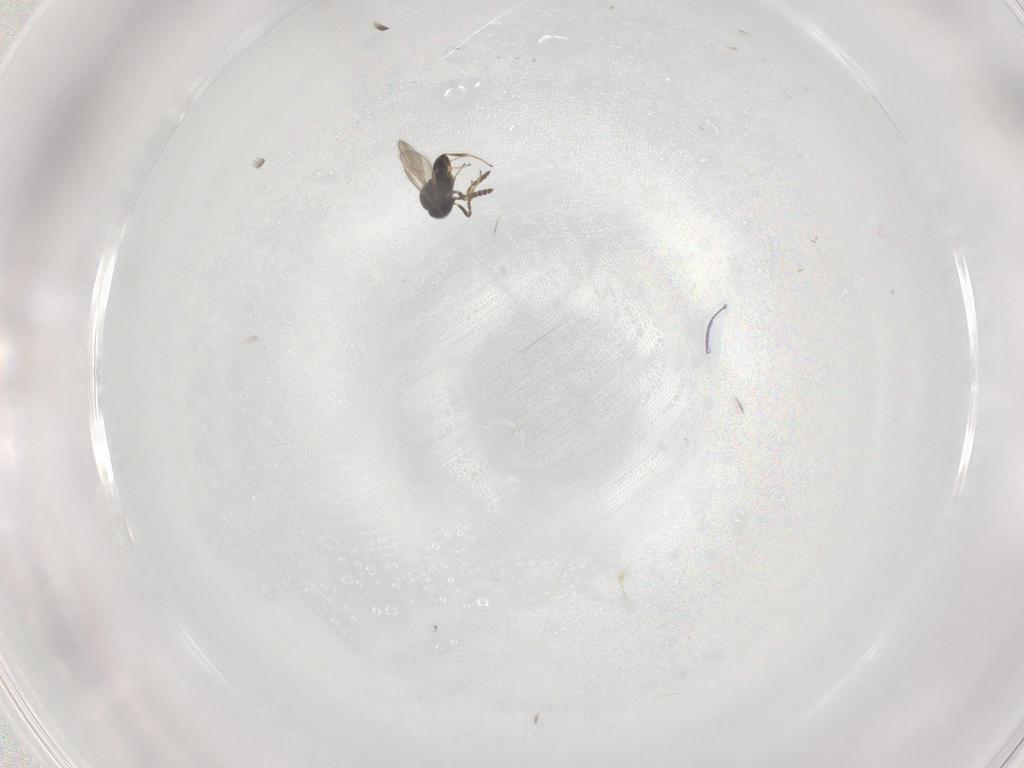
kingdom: Animalia
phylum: Arthropoda
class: Insecta
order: Hymenoptera
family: Scelionidae
